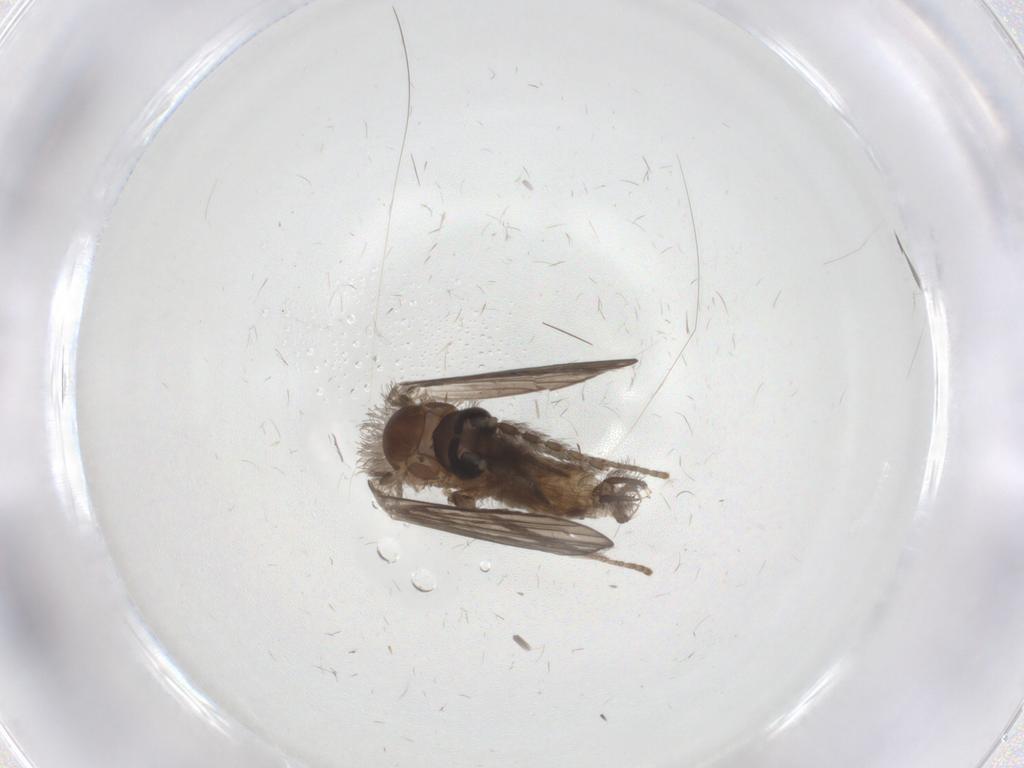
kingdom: Animalia
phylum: Arthropoda
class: Insecta
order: Diptera
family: Psychodidae
